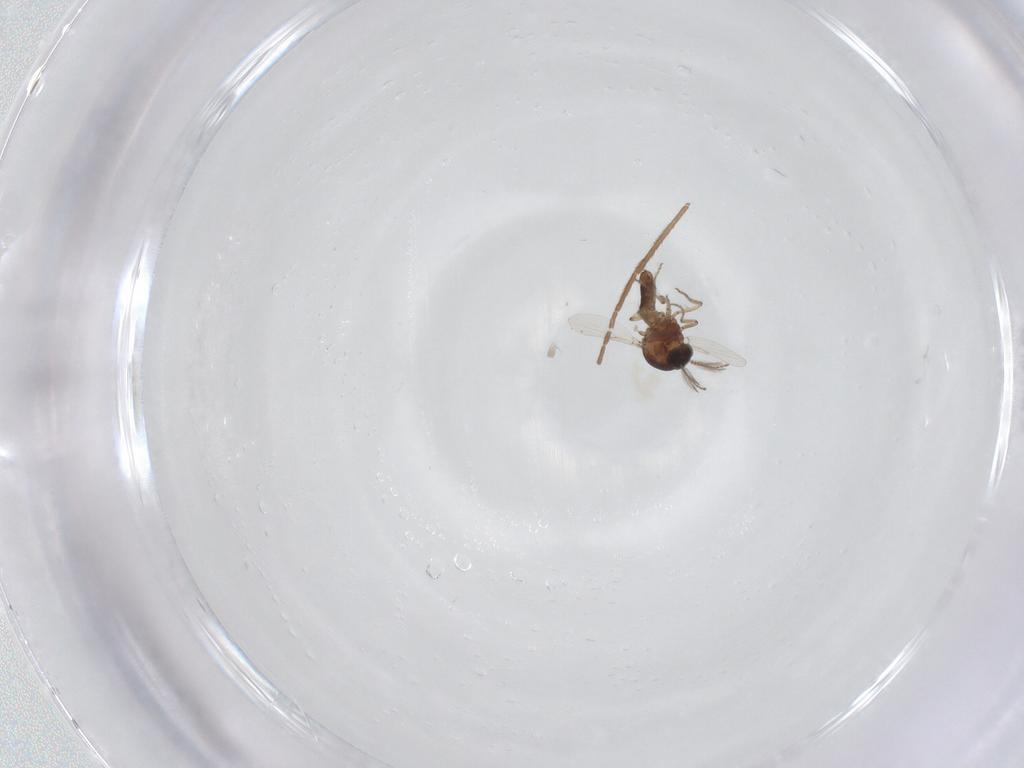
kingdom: Animalia
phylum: Arthropoda
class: Insecta
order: Diptera
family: Ceratopogonidae
